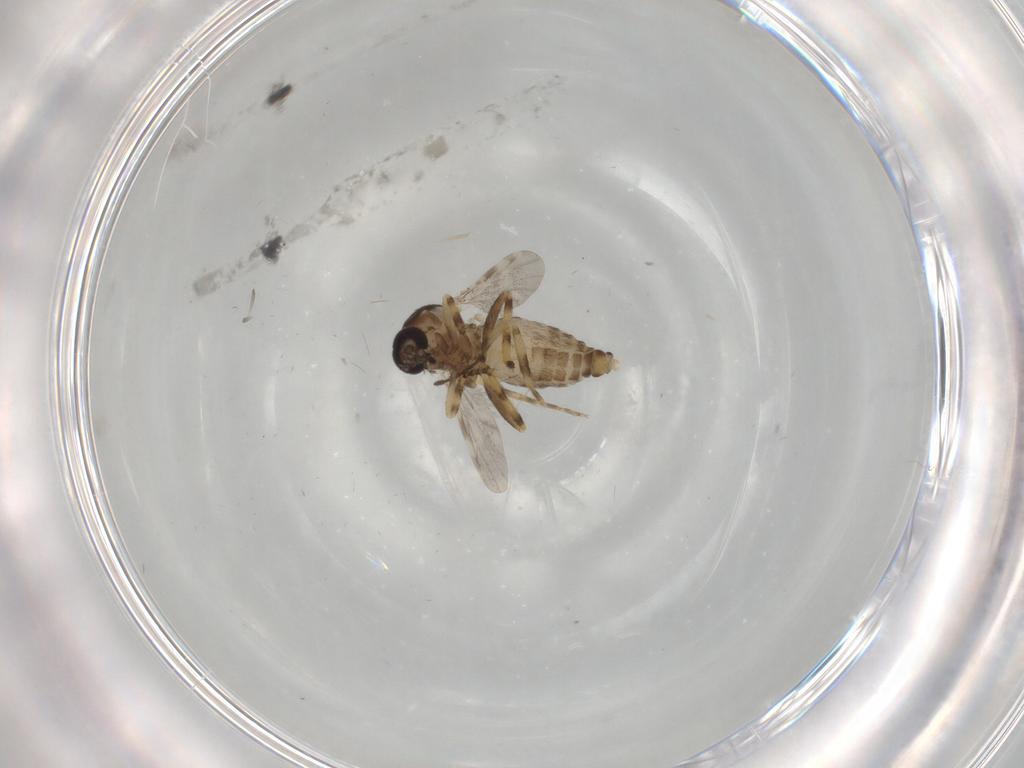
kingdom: Animalia
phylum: Arthropoda
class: Insecta
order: Diptera
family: Ceratopogonidae
